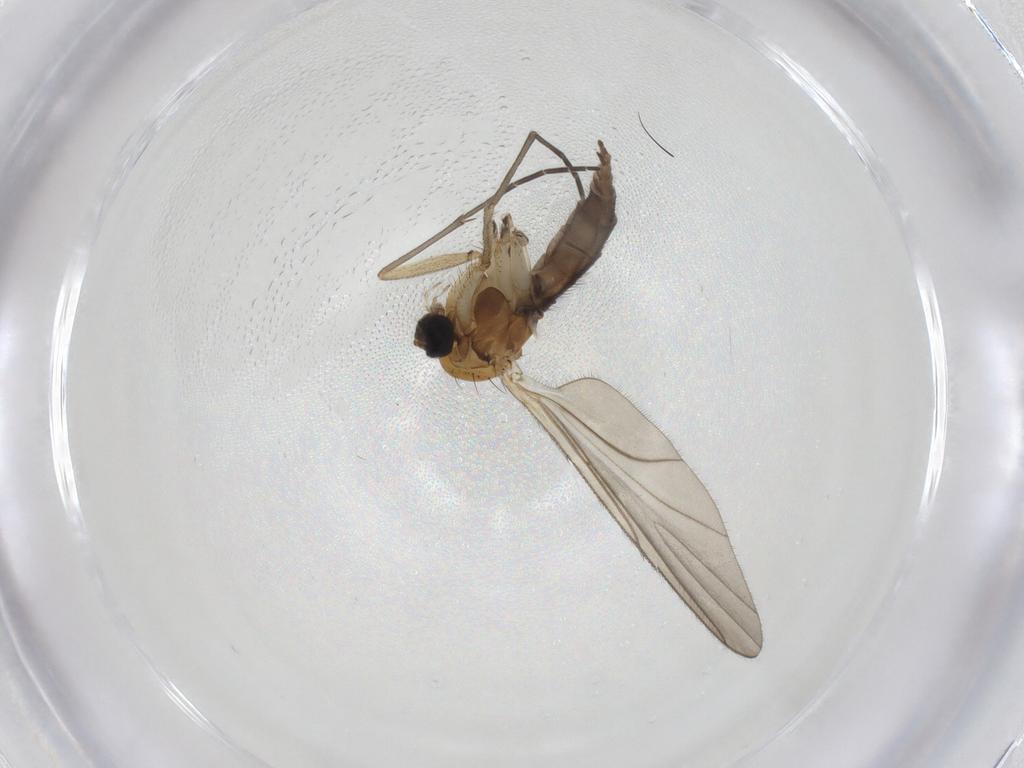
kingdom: Animalia
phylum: Arthropoda
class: Insecta
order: Diptera
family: Sciaridae
